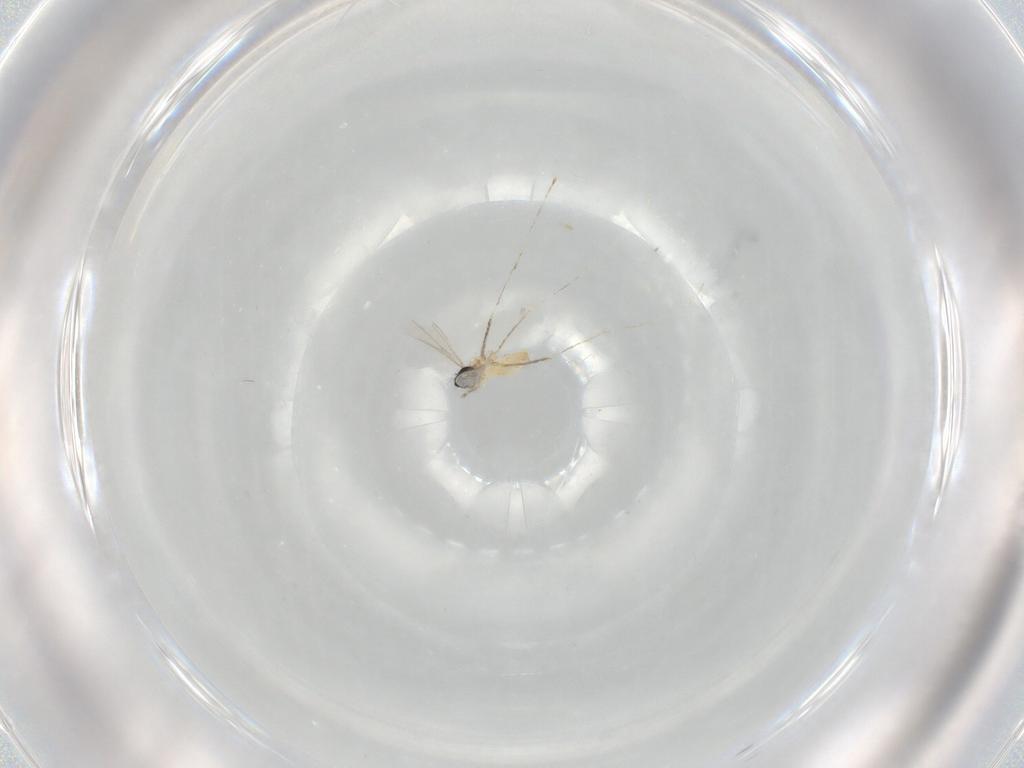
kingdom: Animalia
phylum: Arthropoda
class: Insecta
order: Diptera
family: Cecidomyiidae
